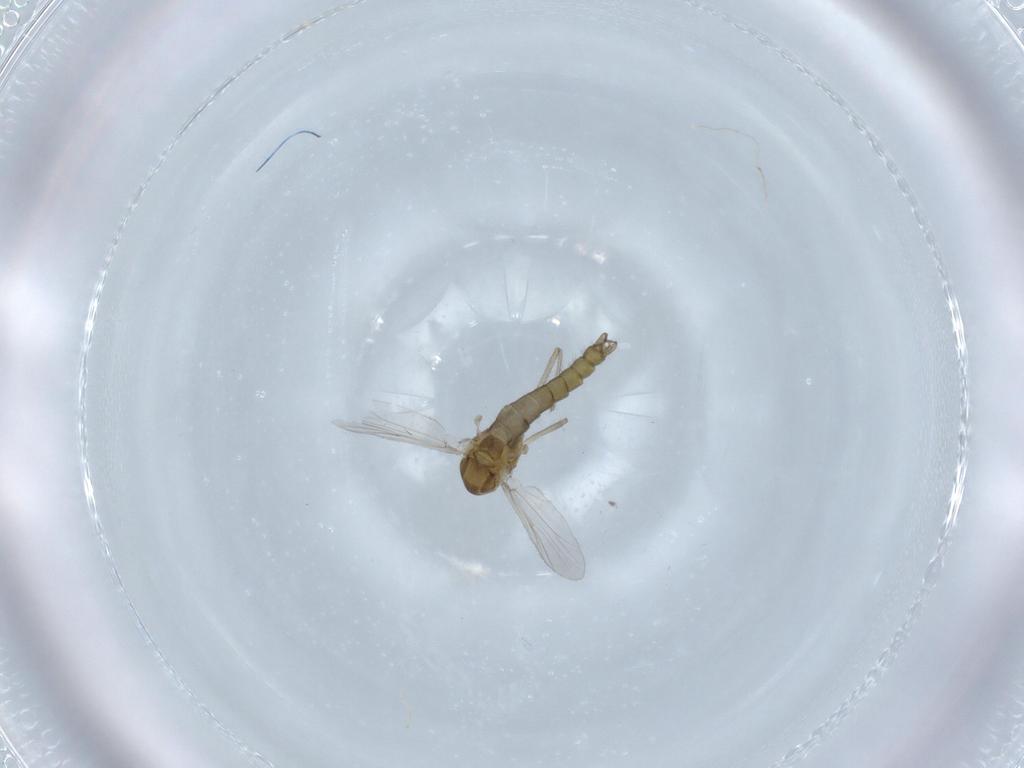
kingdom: Animalia
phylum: Arthropoda
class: Insecta
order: Diptera
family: Chironomidae
